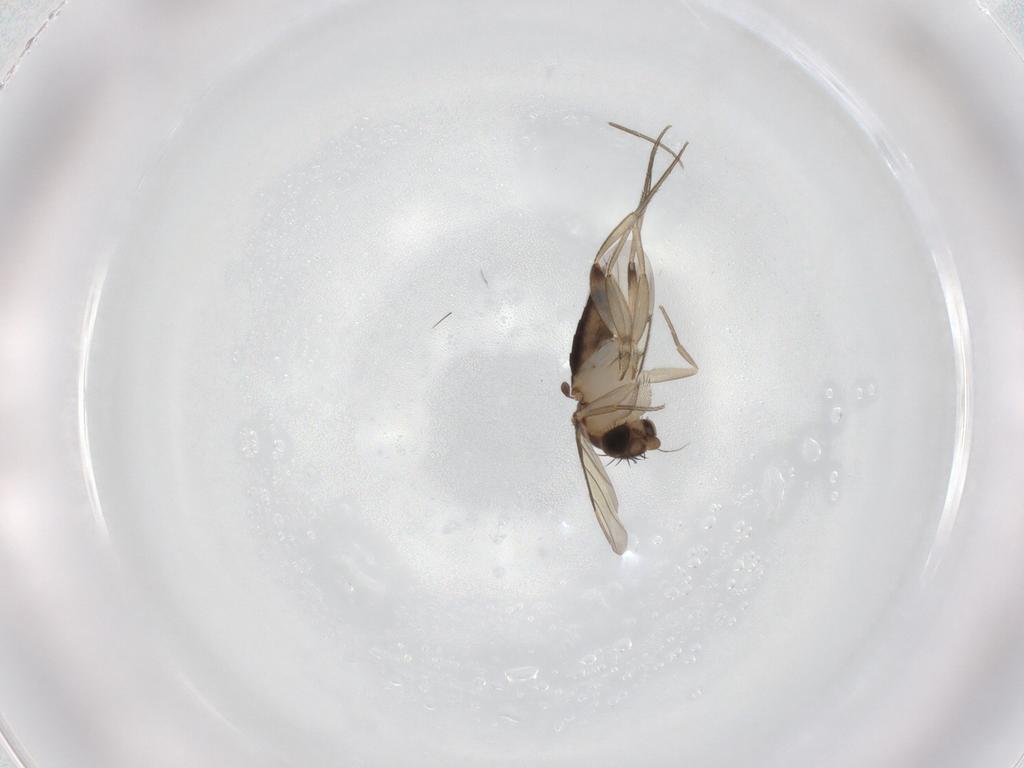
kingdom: Animalia
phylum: Arthropoda
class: Insecta
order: Diptera
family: Phoridae
